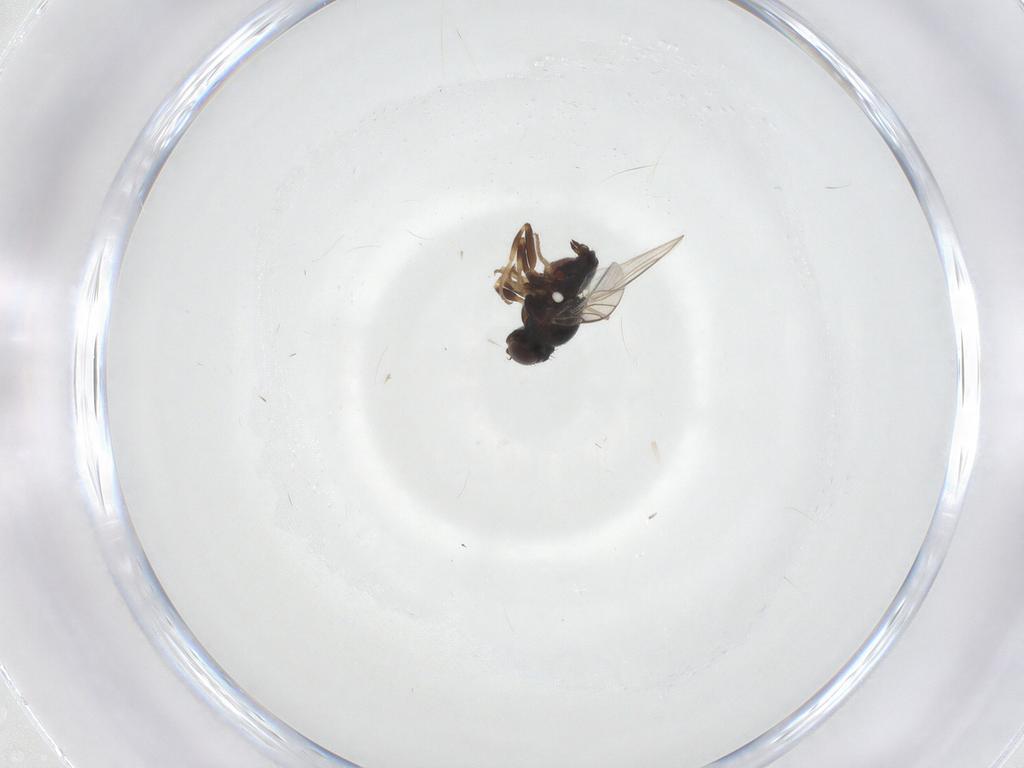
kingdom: Animalia
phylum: Arthropoda
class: Insecta
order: Diptera
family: Chloropidae
